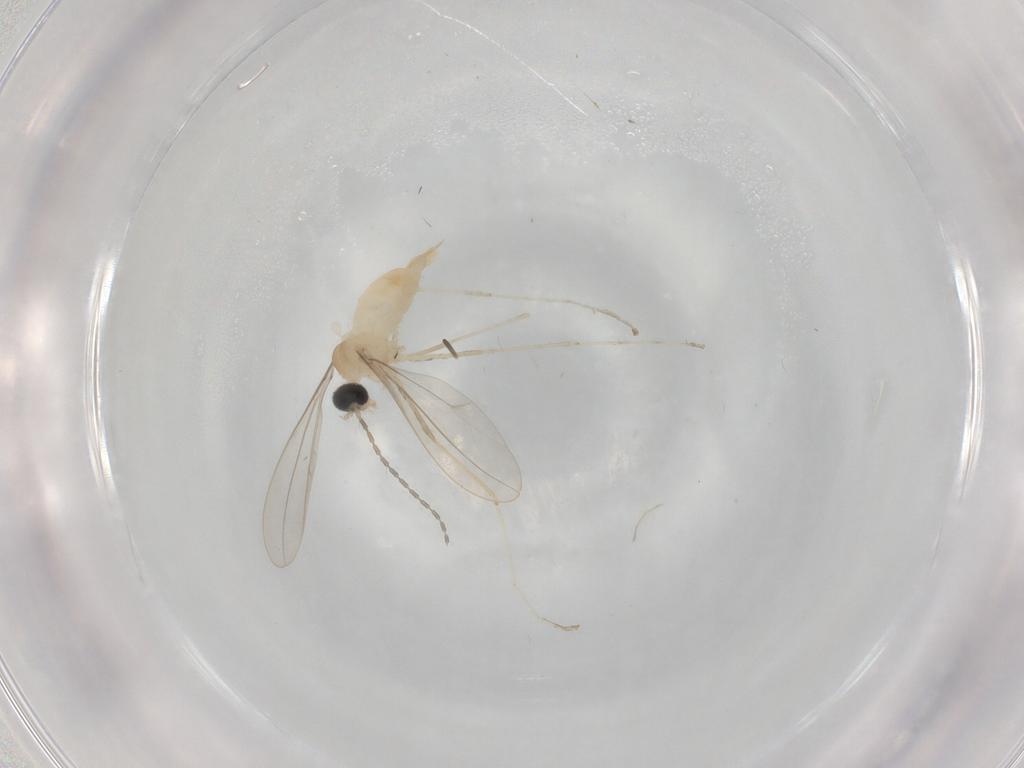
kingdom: Animalia
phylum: Arthropoda
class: Insecta
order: Diptera
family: Cecidomyiidae
